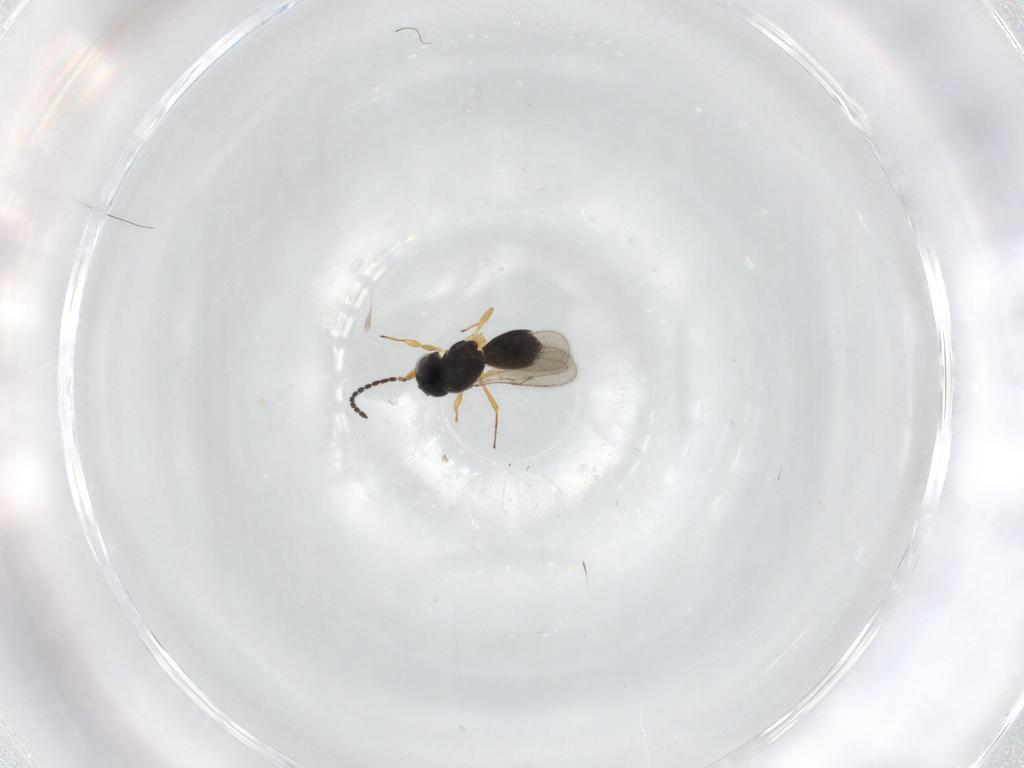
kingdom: Animalia
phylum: Arthropoda
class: Insecta
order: Hymenoptera
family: Scelionidae
